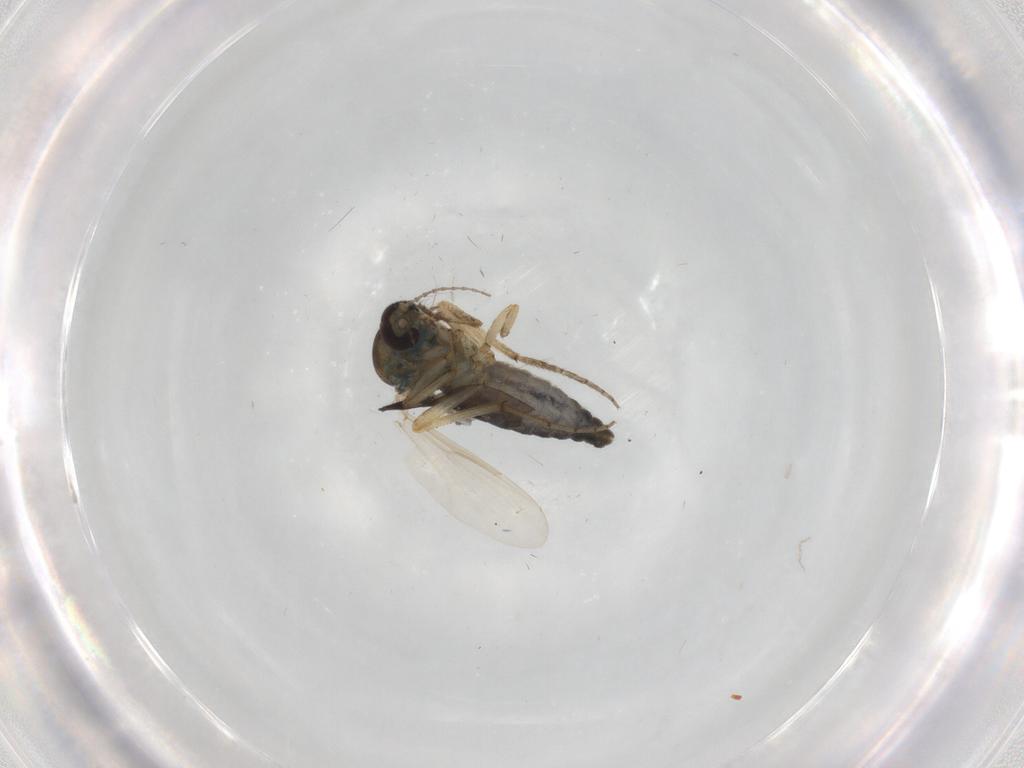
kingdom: Animalia
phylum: Arthropoda
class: Insecta
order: Diptera
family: Ceratopogonidae
